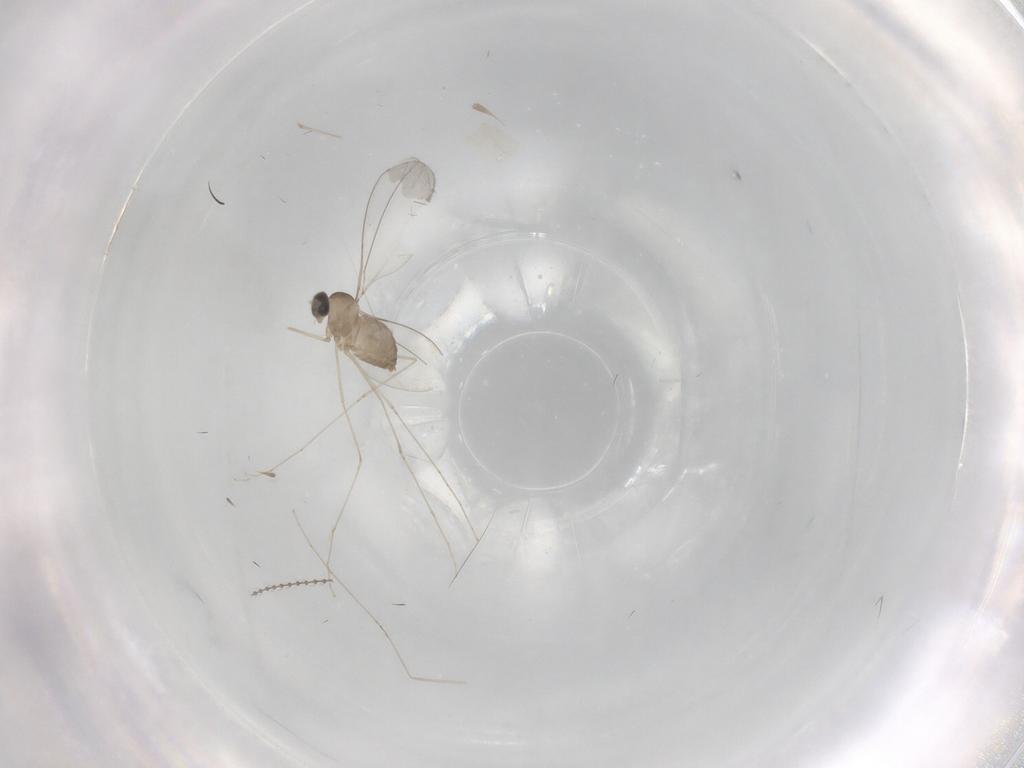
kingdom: Animalia
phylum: Arthropoda
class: Insecta
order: Diptera
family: Cecidomyiidae
